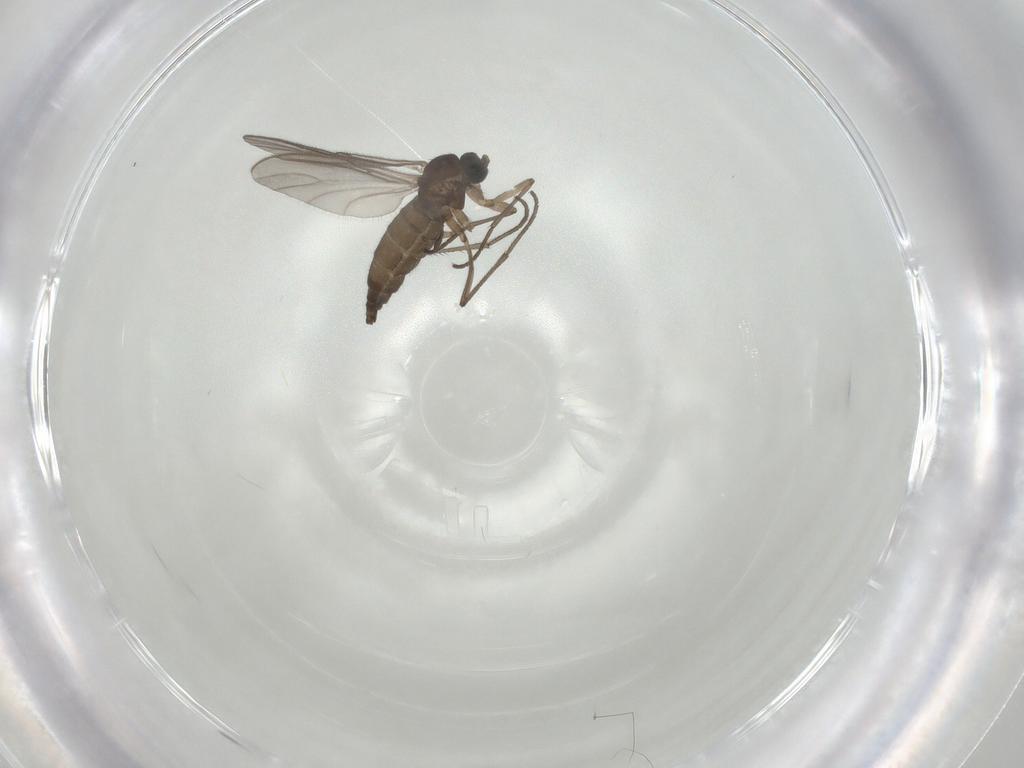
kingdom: Animalia
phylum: Arthropoda
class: Insecta
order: Diptera
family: Sciaridae
